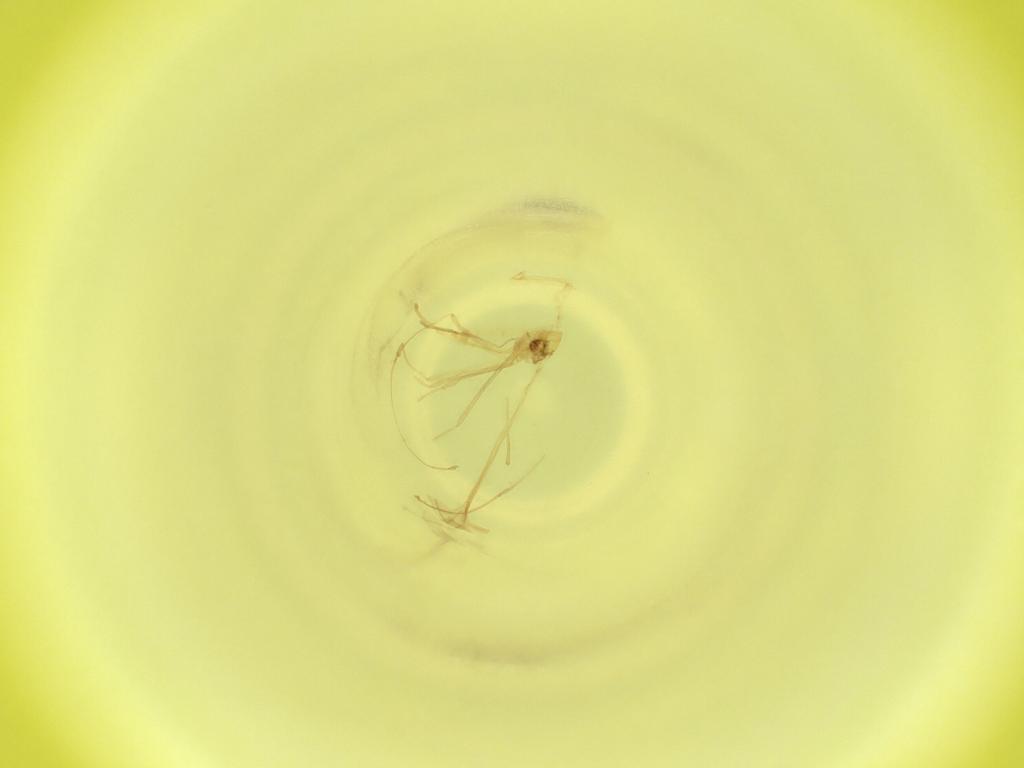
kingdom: Animalia
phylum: Arthropoda
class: Insecta
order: Diptera
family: Cecidomyiidae
